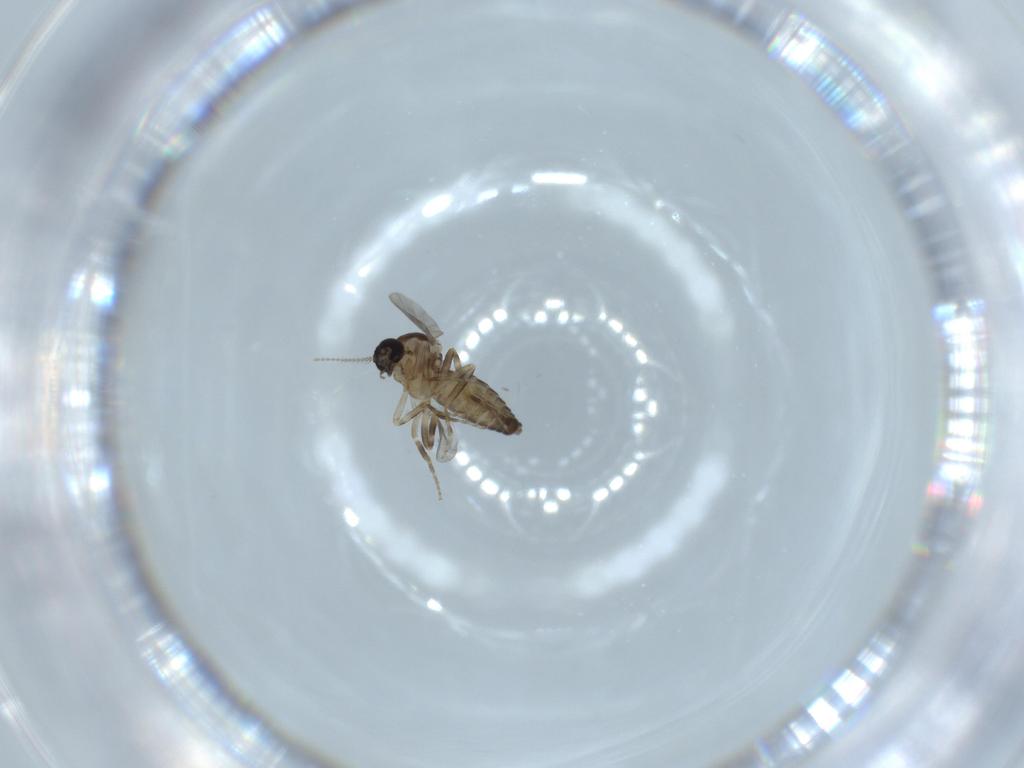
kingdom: Animalia
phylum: Arthropoda
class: Insecta
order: Diptera
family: Ceratopogonidae
